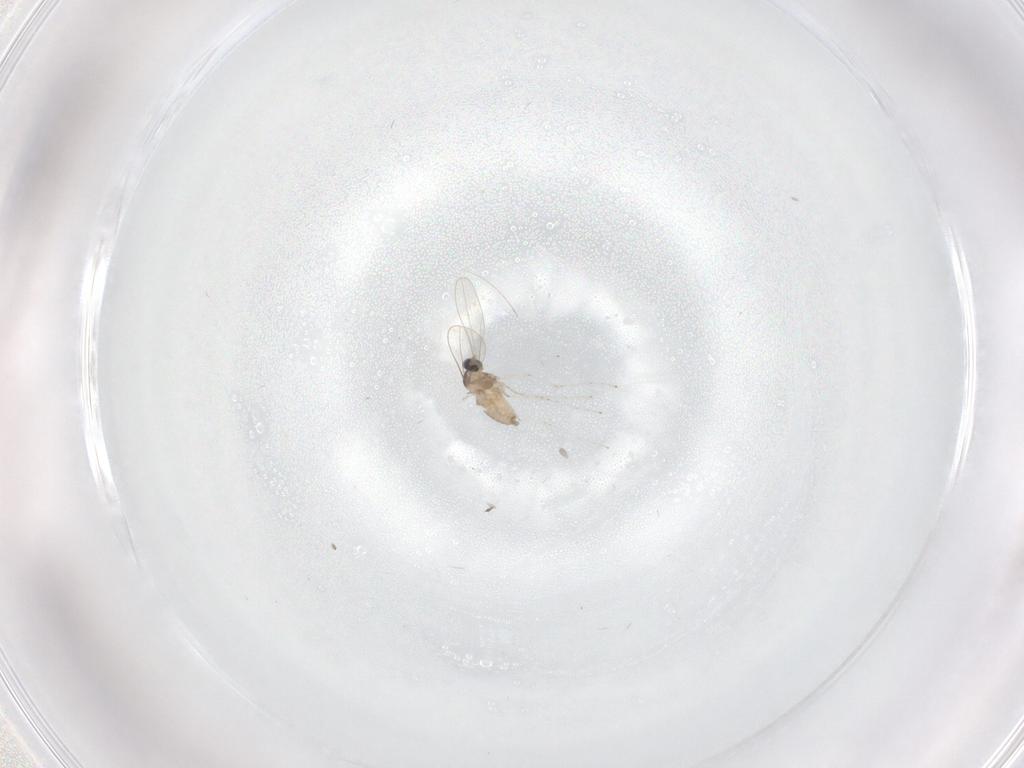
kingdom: Animalia
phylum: Arthropoda
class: Insecta
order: Diptera
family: Cecidomyiidae
